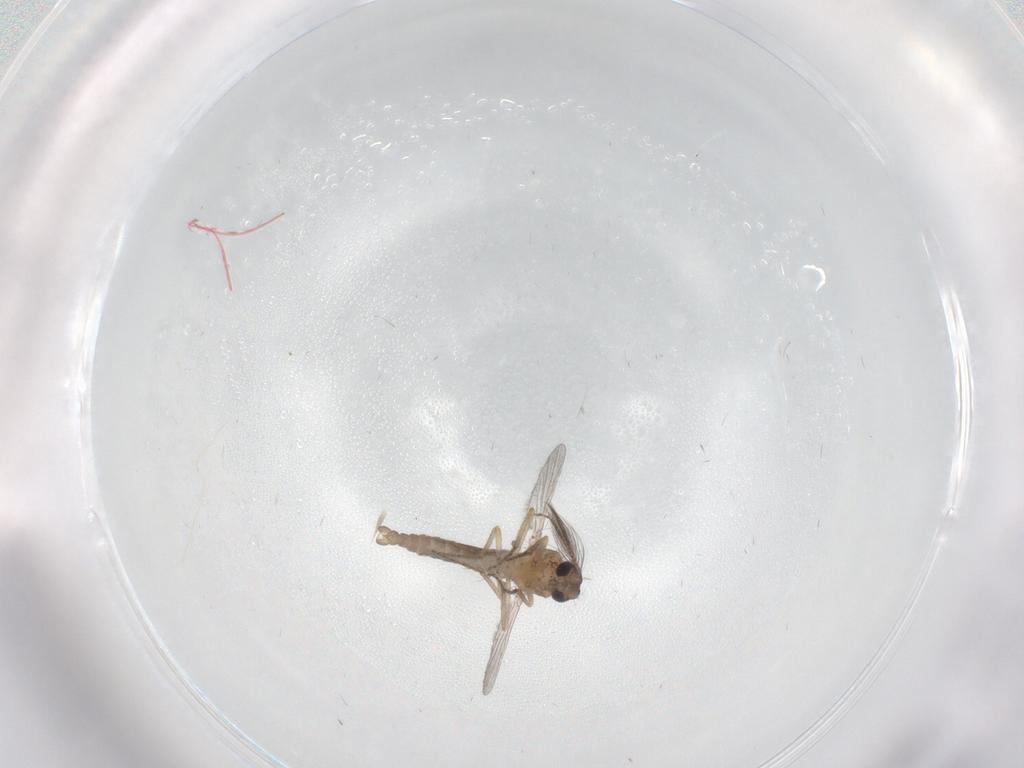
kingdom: Animalia
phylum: Arthropoda
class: Insecta
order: Diptera
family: Ceratopogonidae
